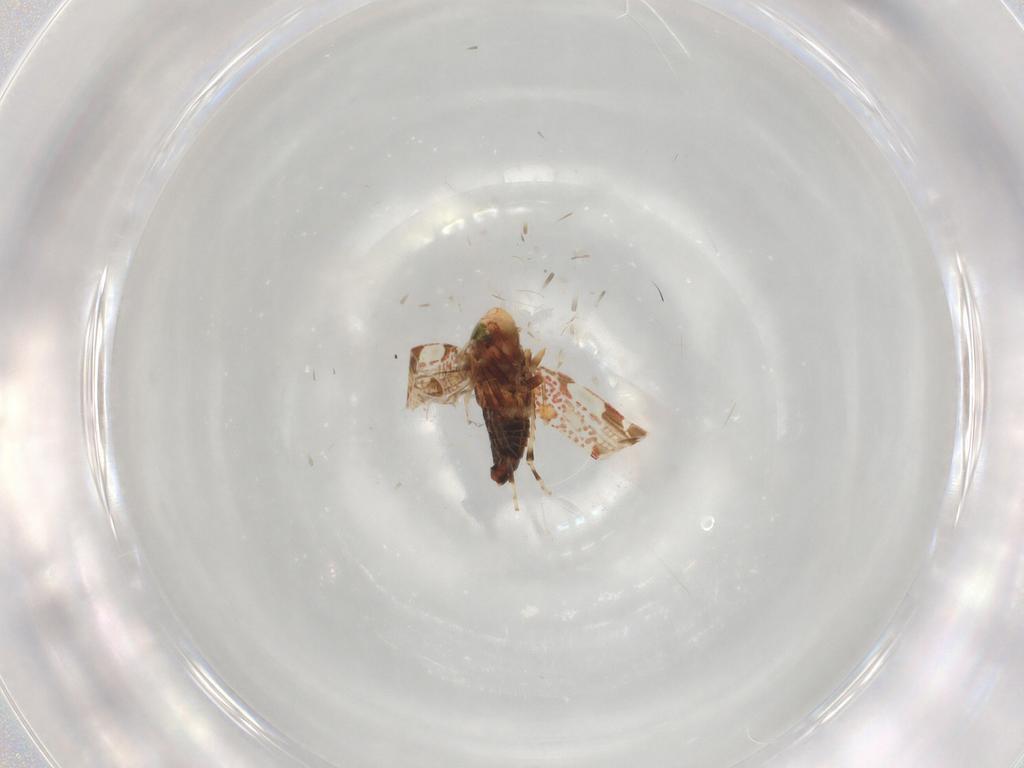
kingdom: Animalia
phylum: Arthropoda
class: Insecta
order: Hemiptera
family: Cicadellidae
